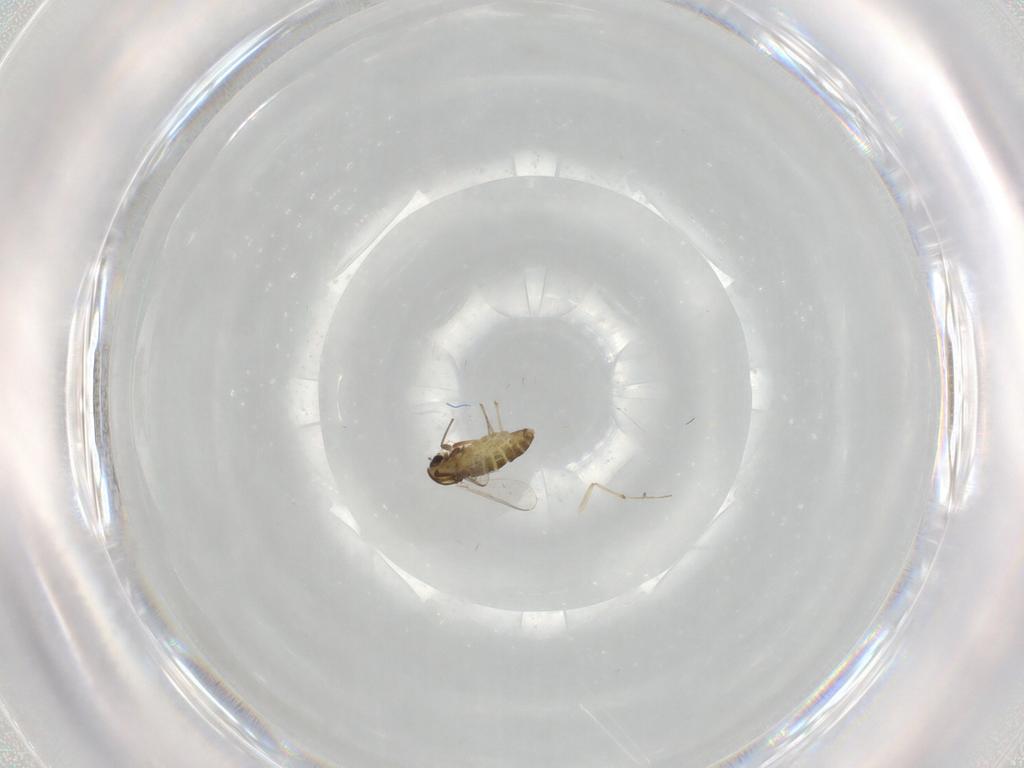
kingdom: Animalia
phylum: Arthropoda
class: Insecta
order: Diptera
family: Chironomidae
